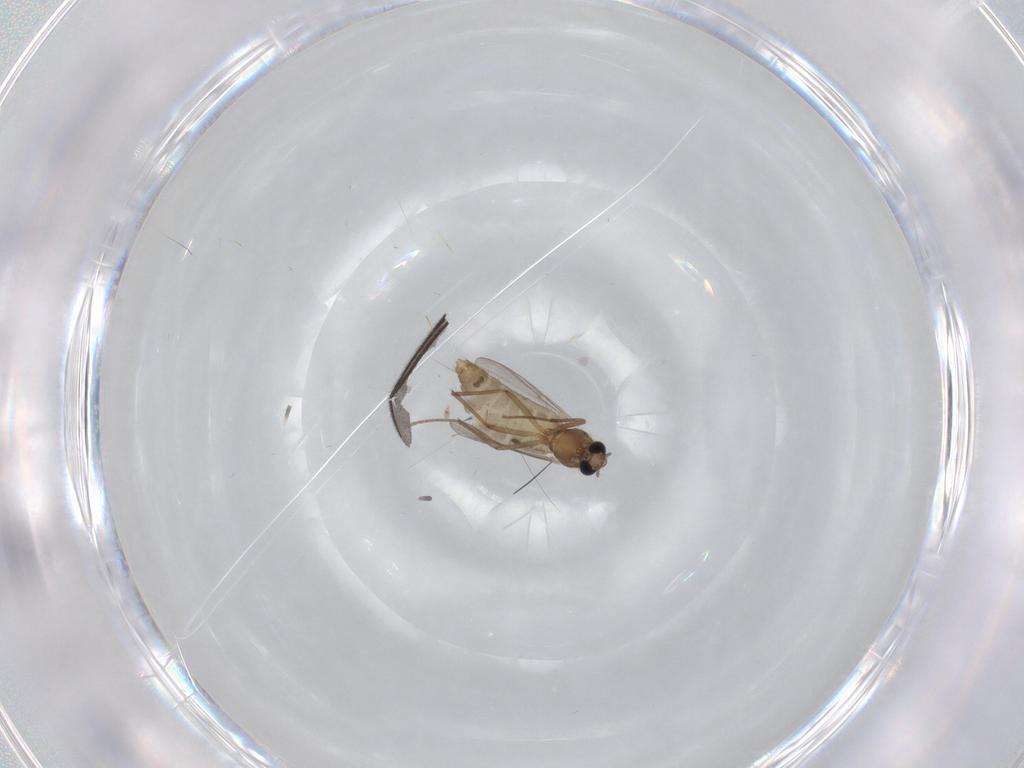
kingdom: Animalia
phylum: Arthropoda
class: Insecta
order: Diptera
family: Chironomidae
